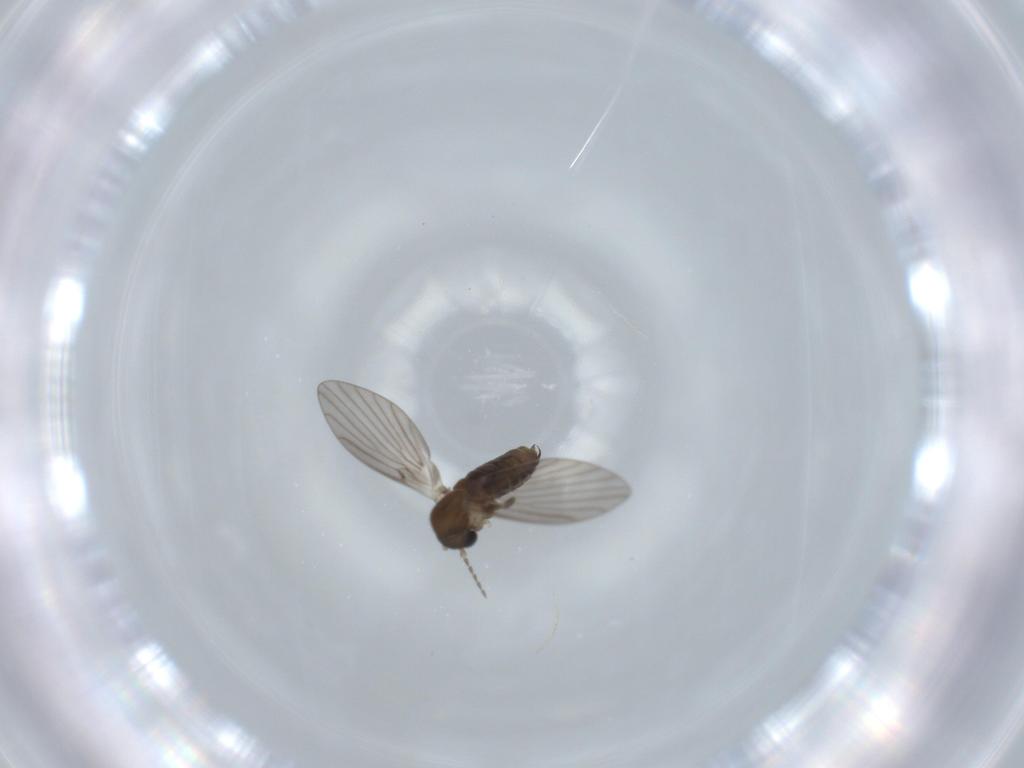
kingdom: Animalia
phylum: Arthropoda
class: Insecta
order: Diptera
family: Psychodidae
